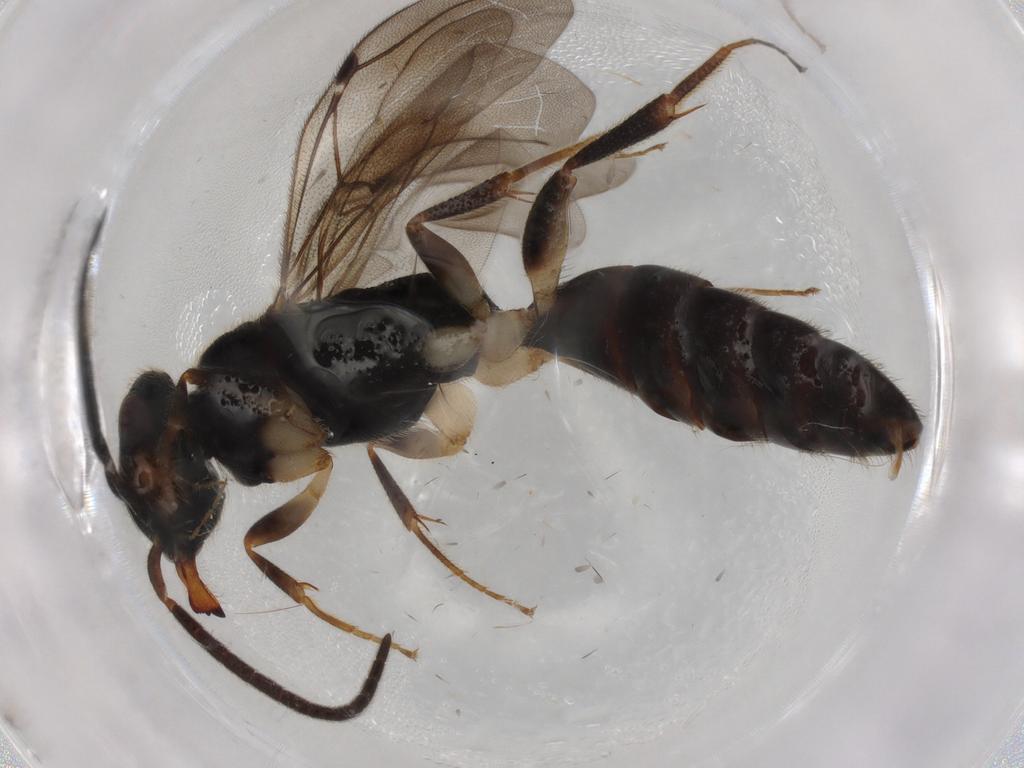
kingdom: Animalia
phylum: Arthropoda
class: Insecta
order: Hymenoptera
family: Bethylidae
